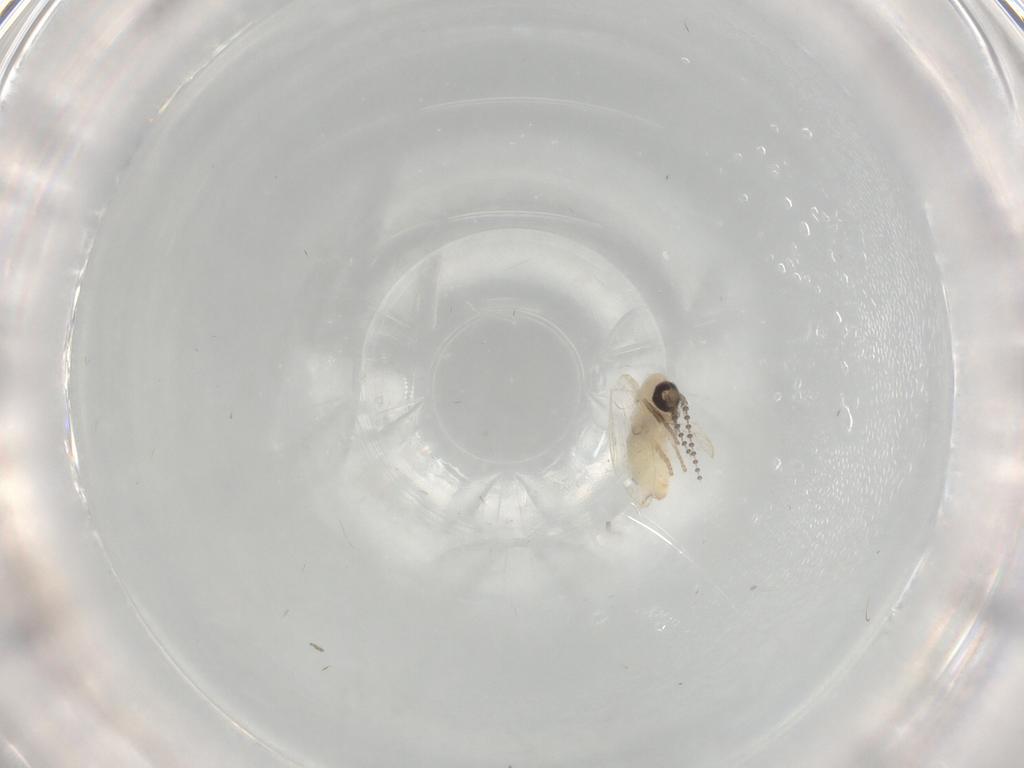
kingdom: Animalia
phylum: Arthropoda
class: Insecta
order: Diptera
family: Psychodidae
